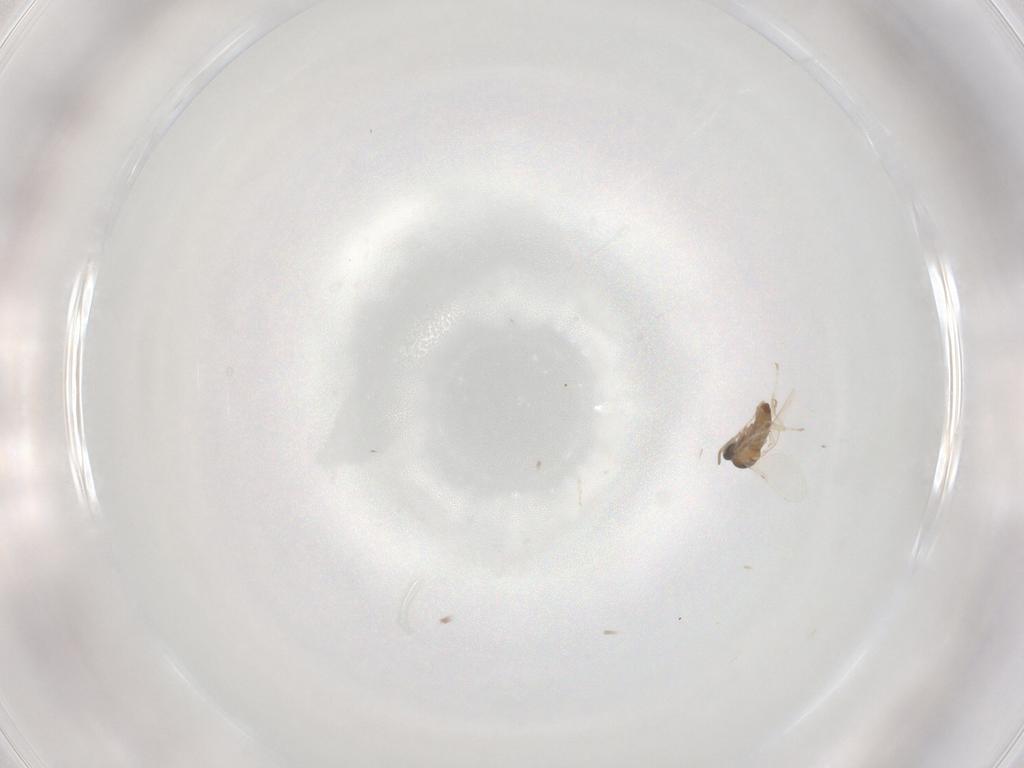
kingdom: Animalia
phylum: Arthropoda
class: Insecta
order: Diptera
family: Cecidomyiidae
